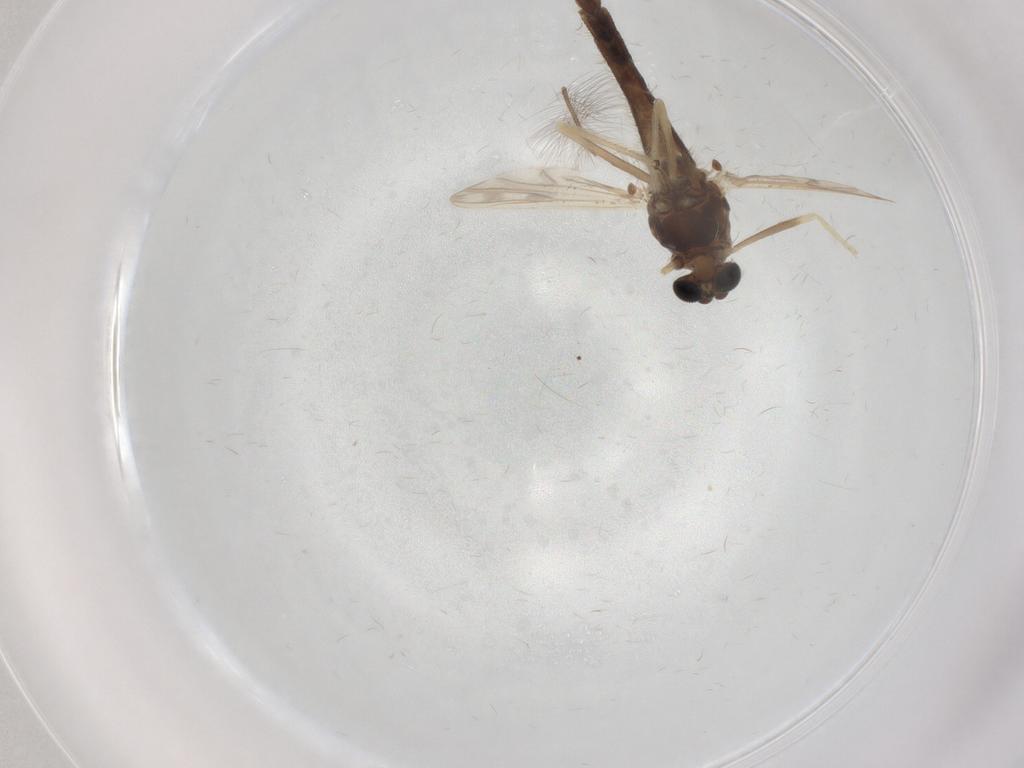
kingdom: Animalia
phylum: Arthropoda
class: Insecta
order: Diptera
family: Chironomidae
